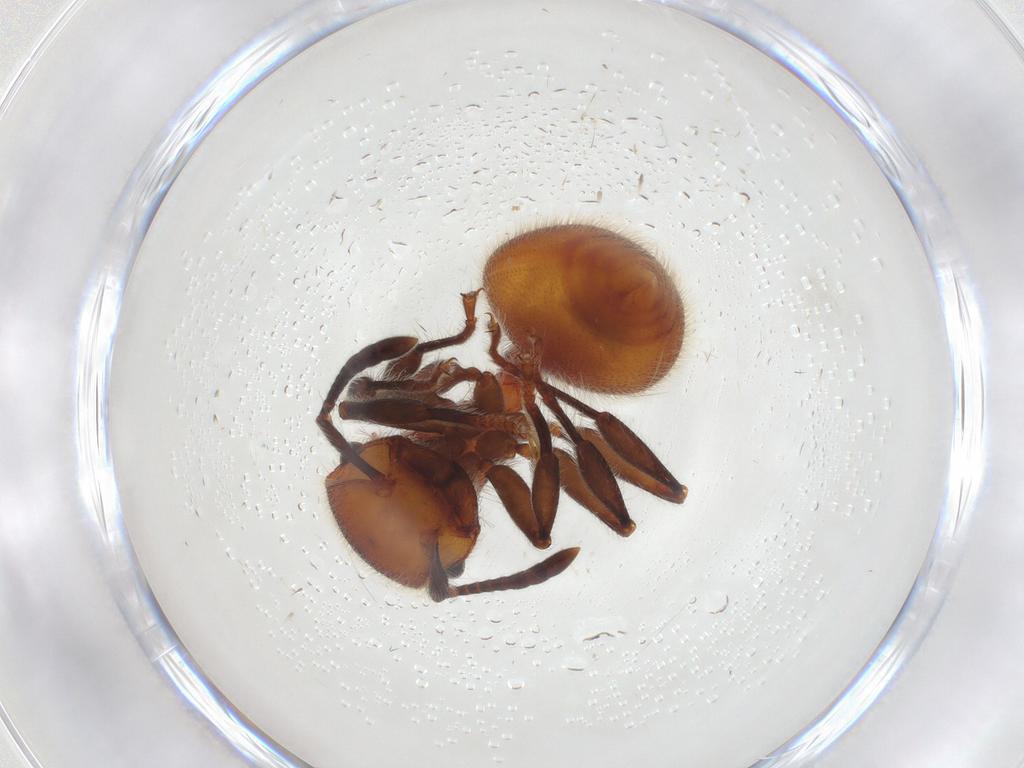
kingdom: Animalia
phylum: Arthropoda
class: Insecta
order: Hymenoptera
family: Formicidae
